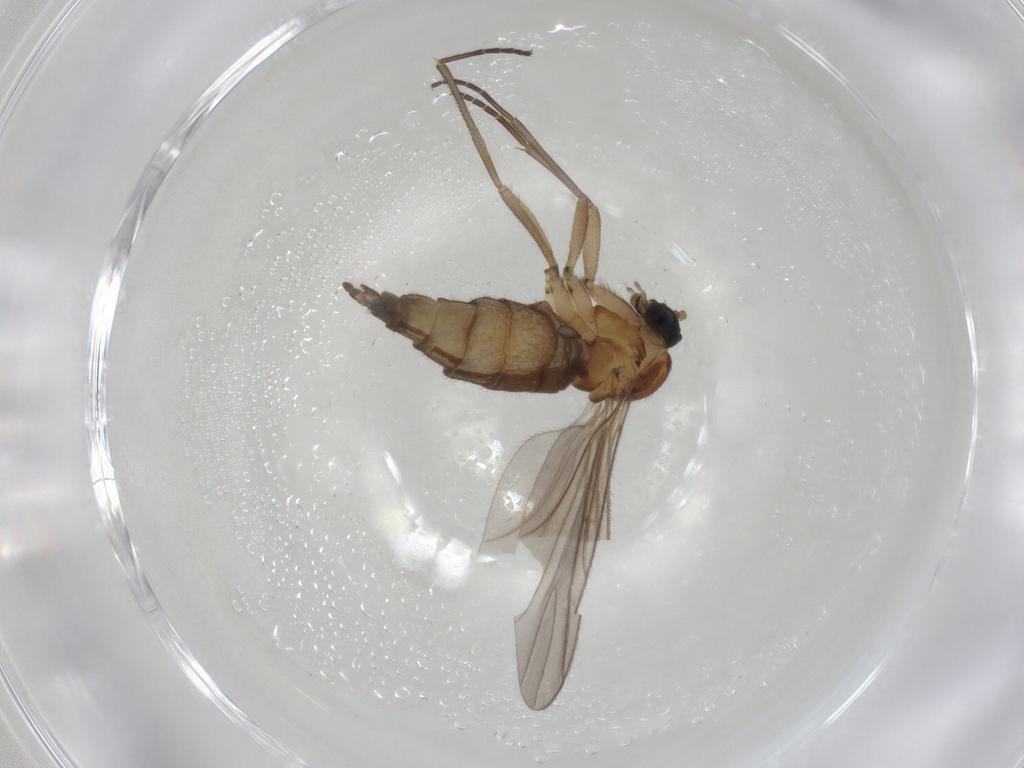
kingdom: Animalia
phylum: Arthropoda
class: Insecta
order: Diptera
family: Sciaridae
